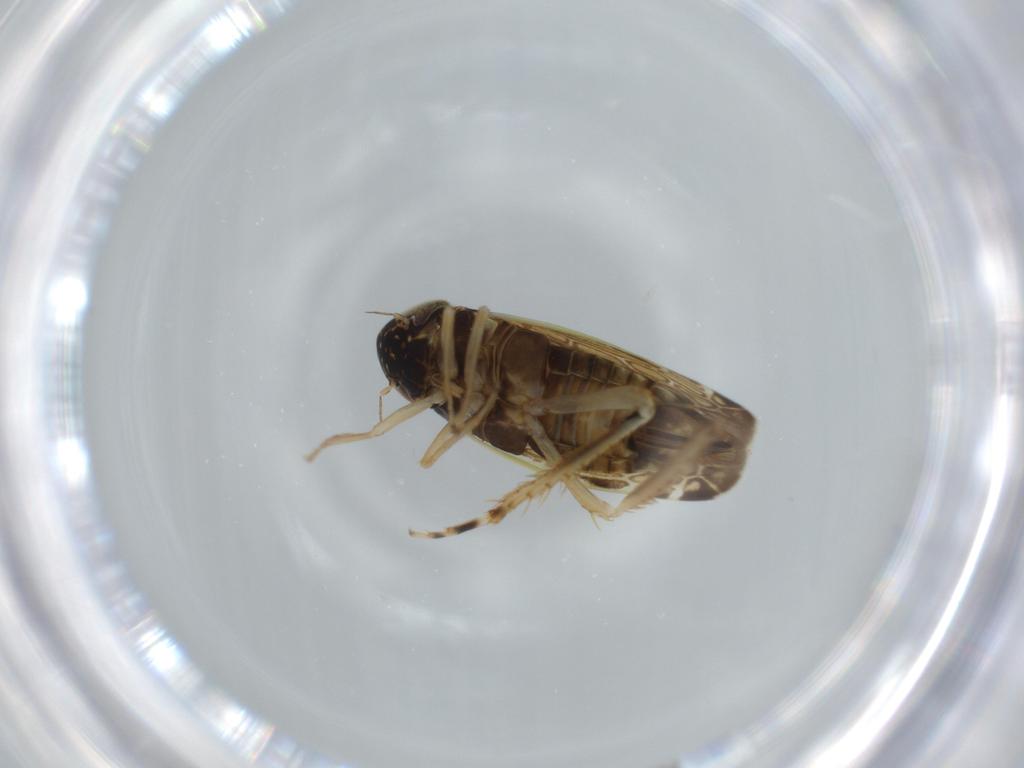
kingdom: Animalia
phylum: Arthropoda
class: Insecta
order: Hemiptera
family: Cicadellidae
